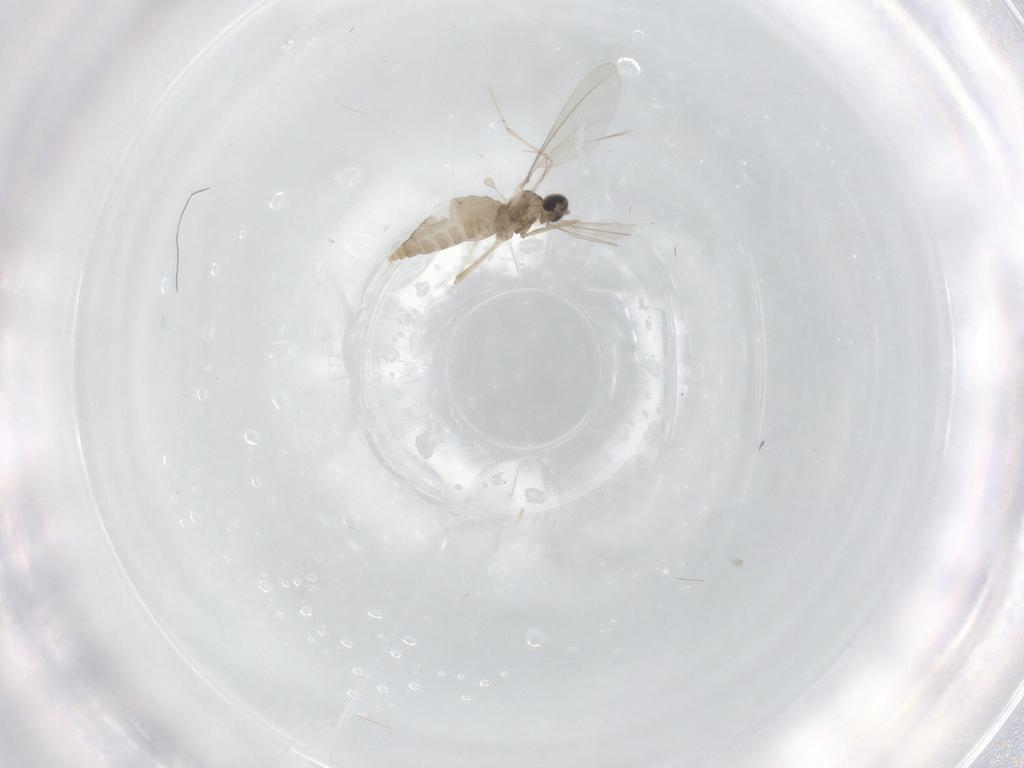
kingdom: Animalia
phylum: Arthropoda
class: Insecta
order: Diptera
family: Cecidomyiidae
